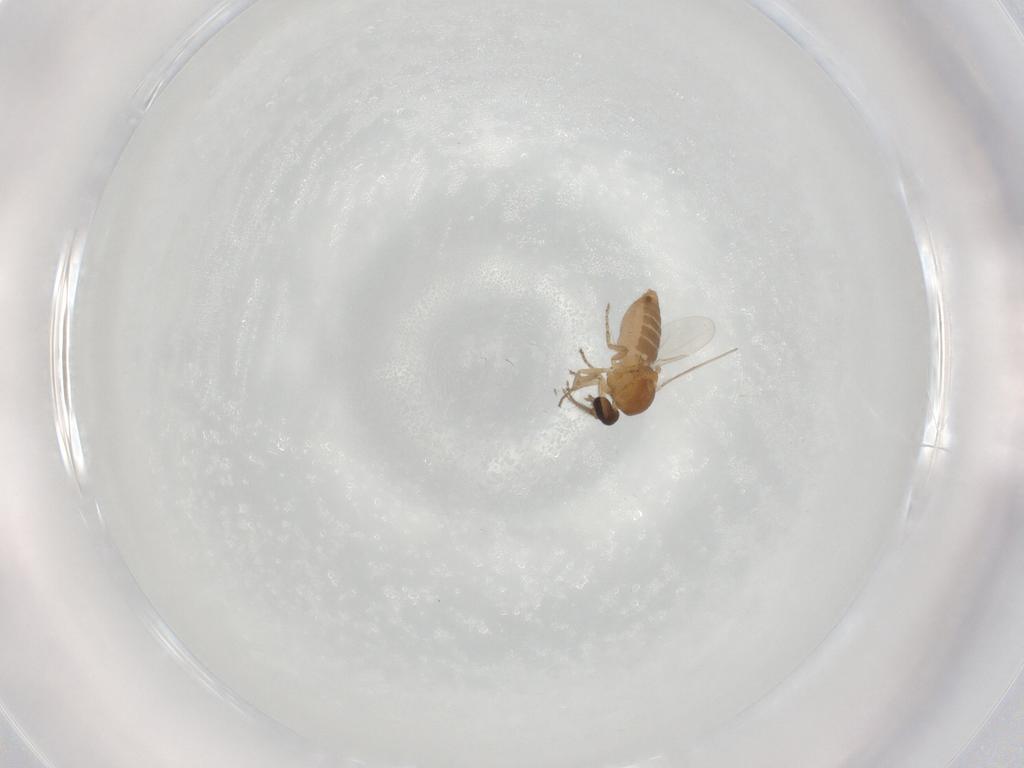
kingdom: Animalia
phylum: Arthropoda
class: Insecta
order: Diptera
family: Ceratopogonidae
